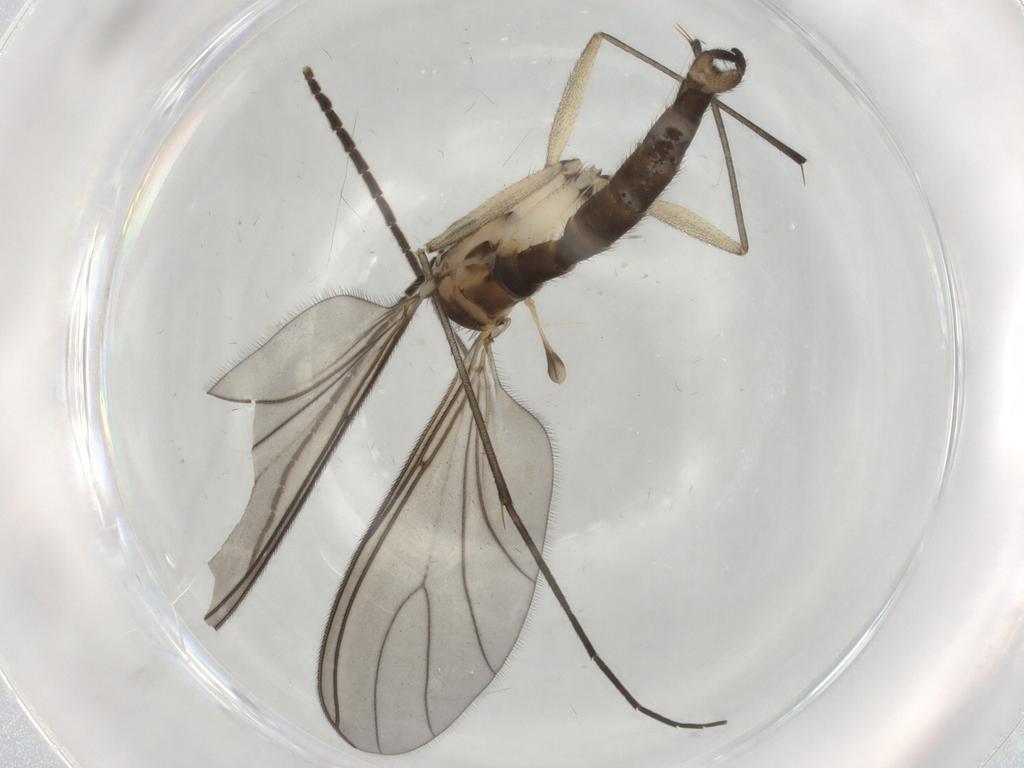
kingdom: Animalia
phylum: Arthropoda
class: Insecta
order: Diptera
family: Sciaridae
